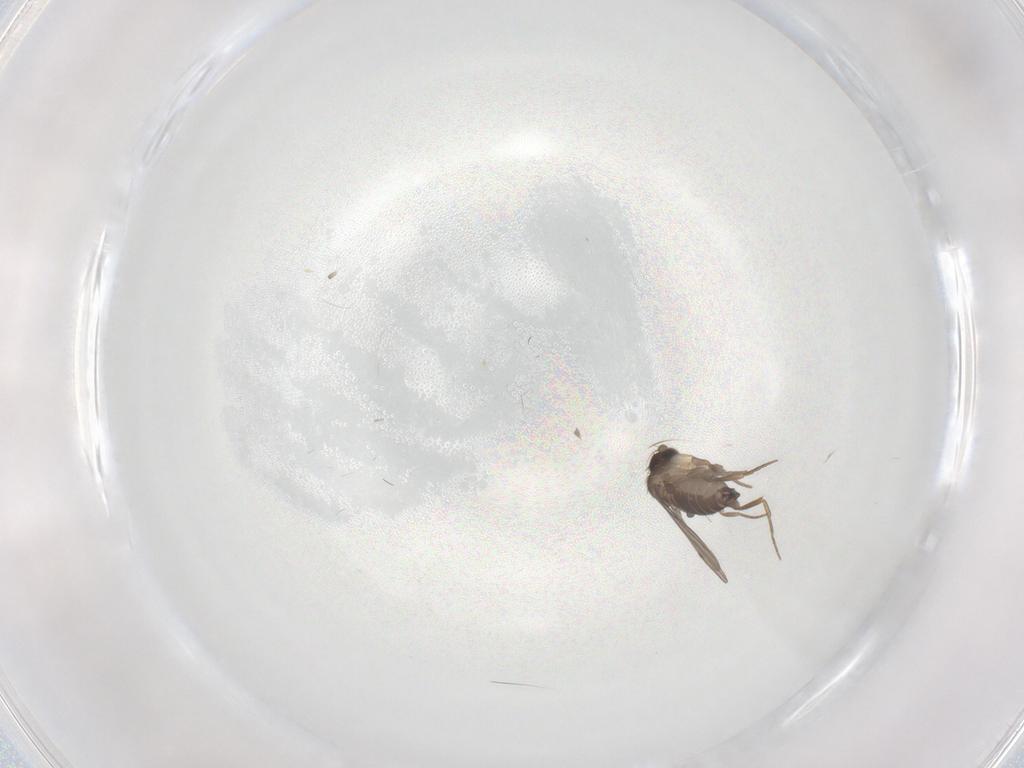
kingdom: Animalia
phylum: Arthropoda
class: Insecta
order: Diptera
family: Phoridae
